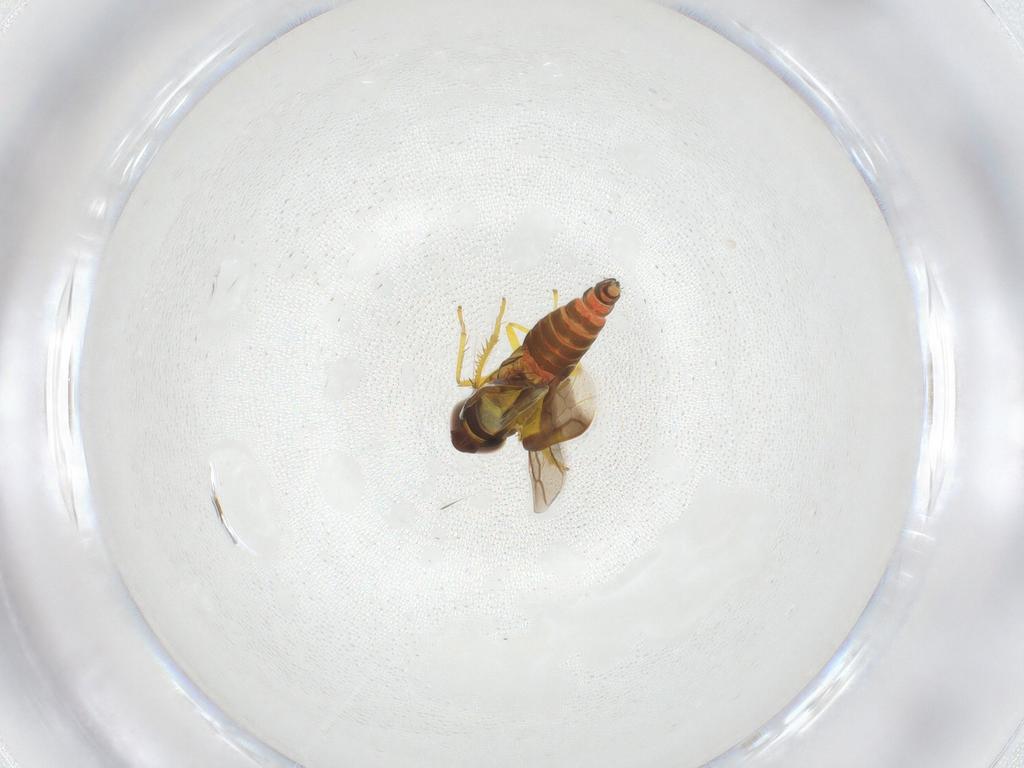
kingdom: Animalia
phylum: Arthropoda
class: Insecta
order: Hemiptera
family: Cicadellidae
